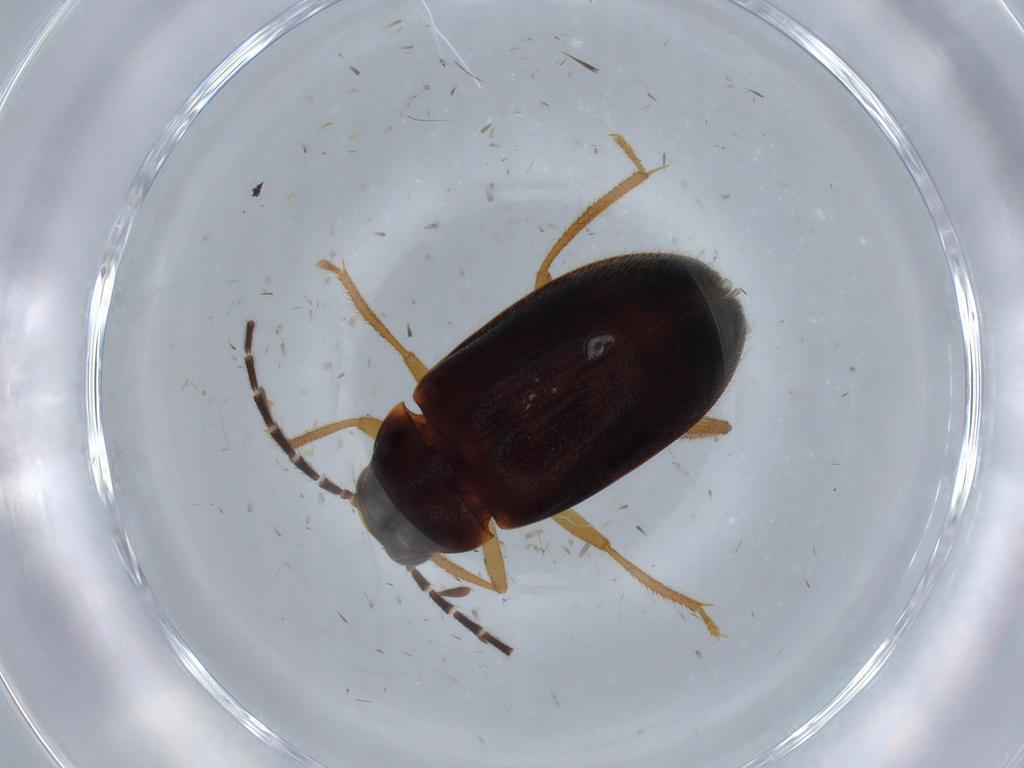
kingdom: Animalia
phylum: Arthropoda
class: Insecta
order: Coleoptera
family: Ptilodactylidae
